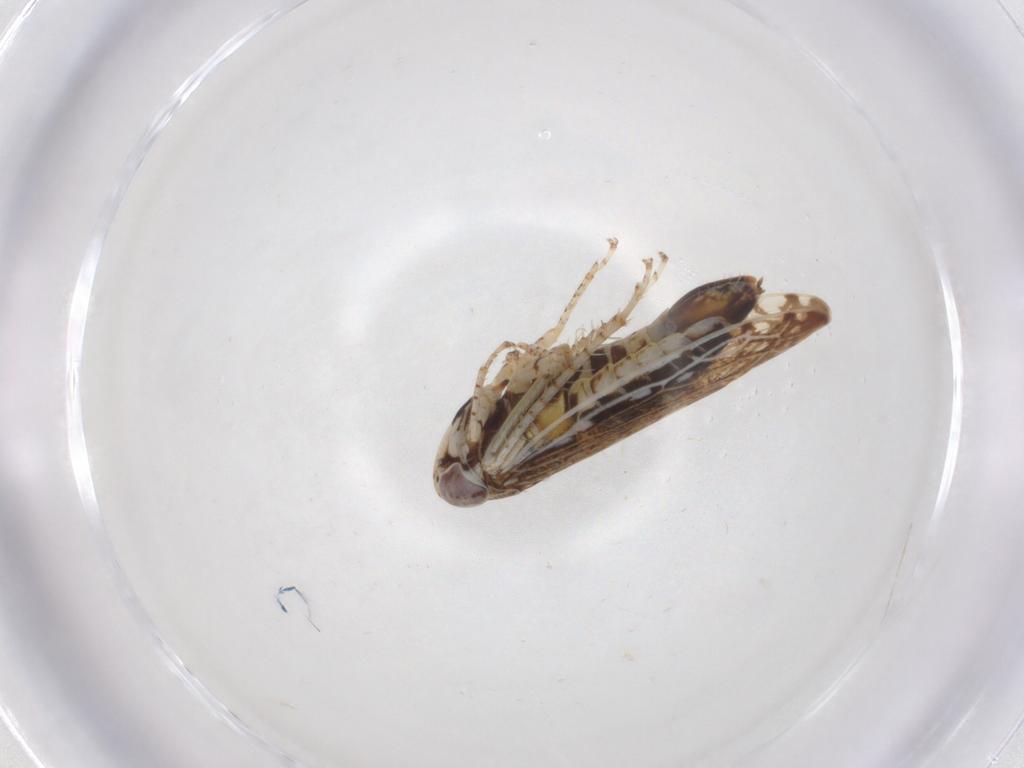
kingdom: Animalia
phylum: Arthropoda
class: Insecta
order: Hemiptera
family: Cicadellidae
